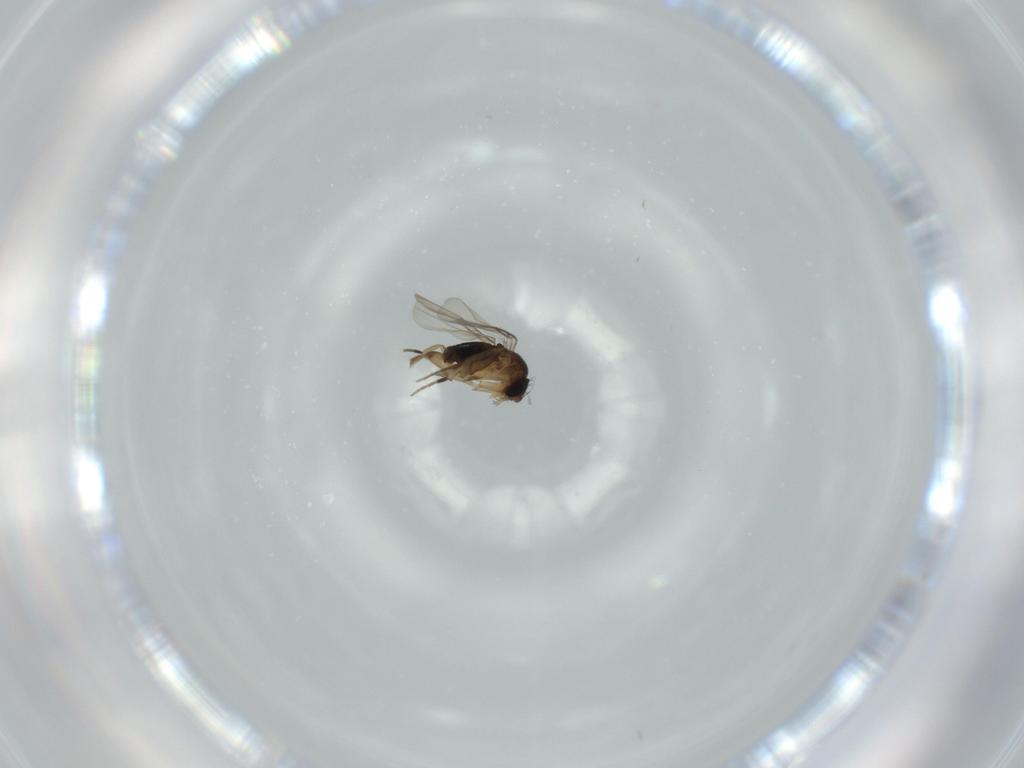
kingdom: Animalia
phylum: Arthropoda
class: Insecta
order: Diptera
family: Phoridae
